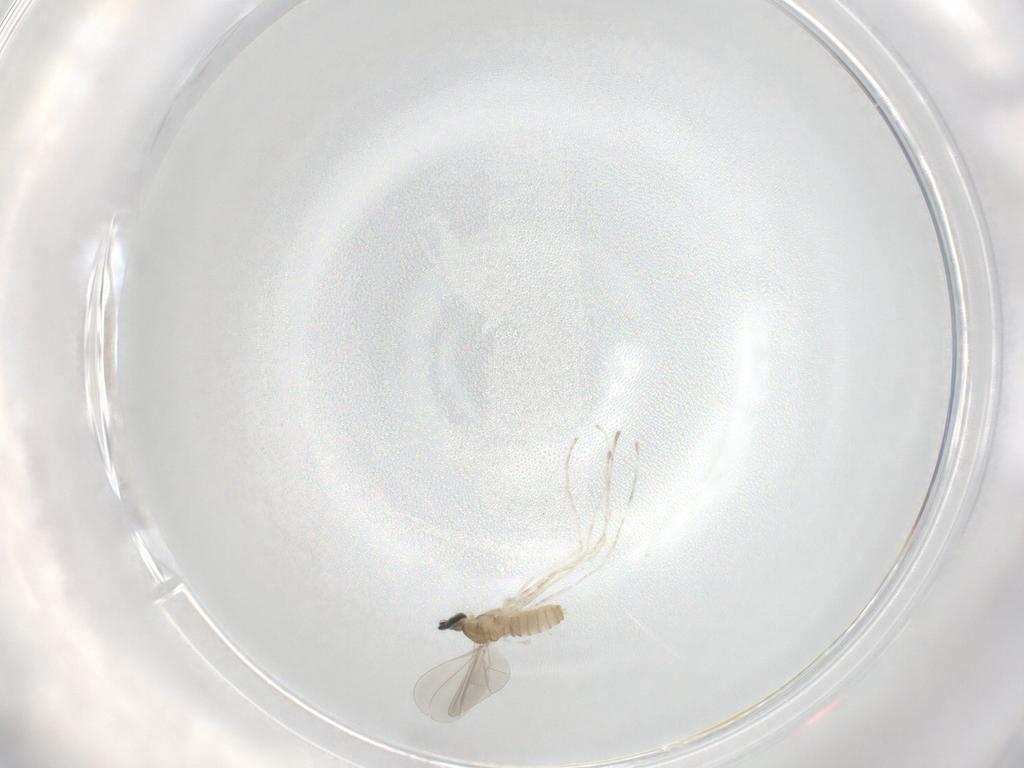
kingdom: Animalia
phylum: Arthropoda
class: Insecta
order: Diptera
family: Cecidomyiidae
